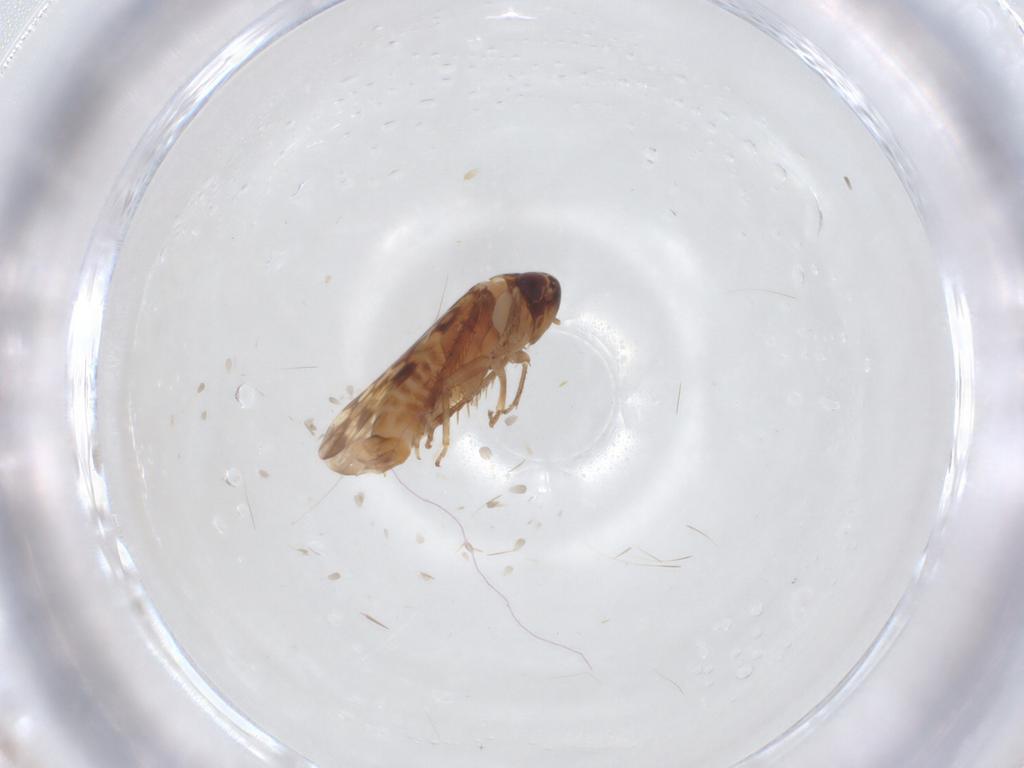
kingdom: Animalia
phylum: Arthropoda
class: Insecta
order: Hemiptera
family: Cicadellidae
